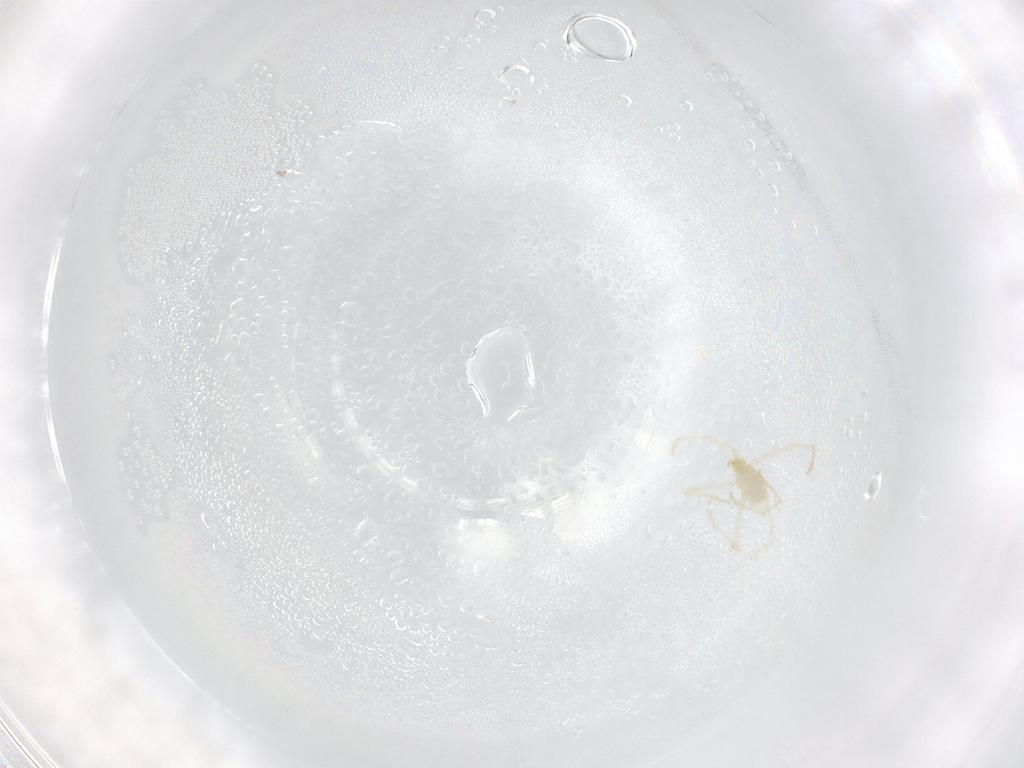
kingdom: Animalia
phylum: Arthropoda
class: Arachnida
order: Trombidiformes
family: Erythraeidae
